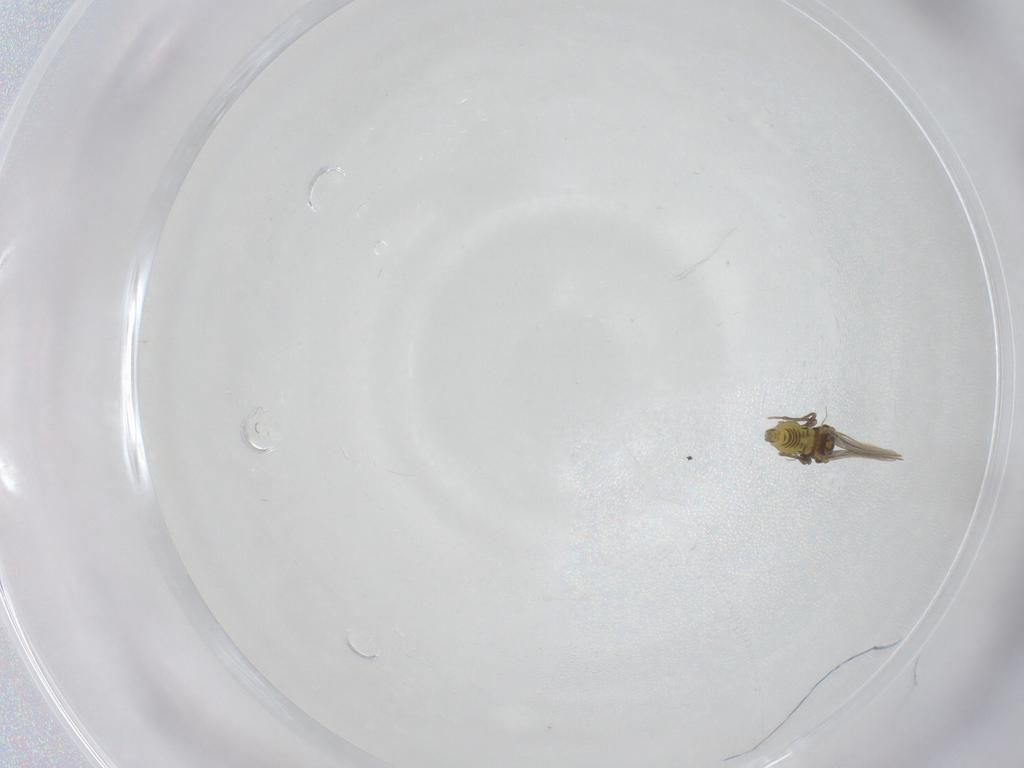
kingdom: Animalia
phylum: Arthropoda
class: Insecta
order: Hemiptera
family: Aleyrodidae
